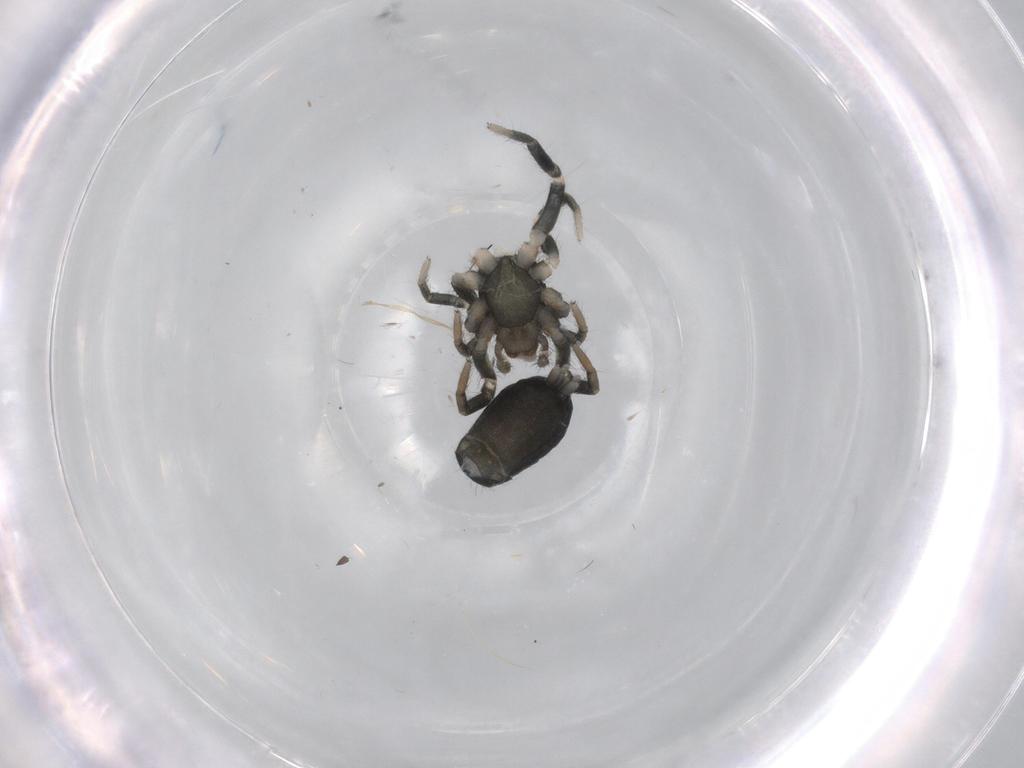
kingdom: Animalia
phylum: Arthropoda
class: Arachnida
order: Araneae
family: Gnaphosidae
